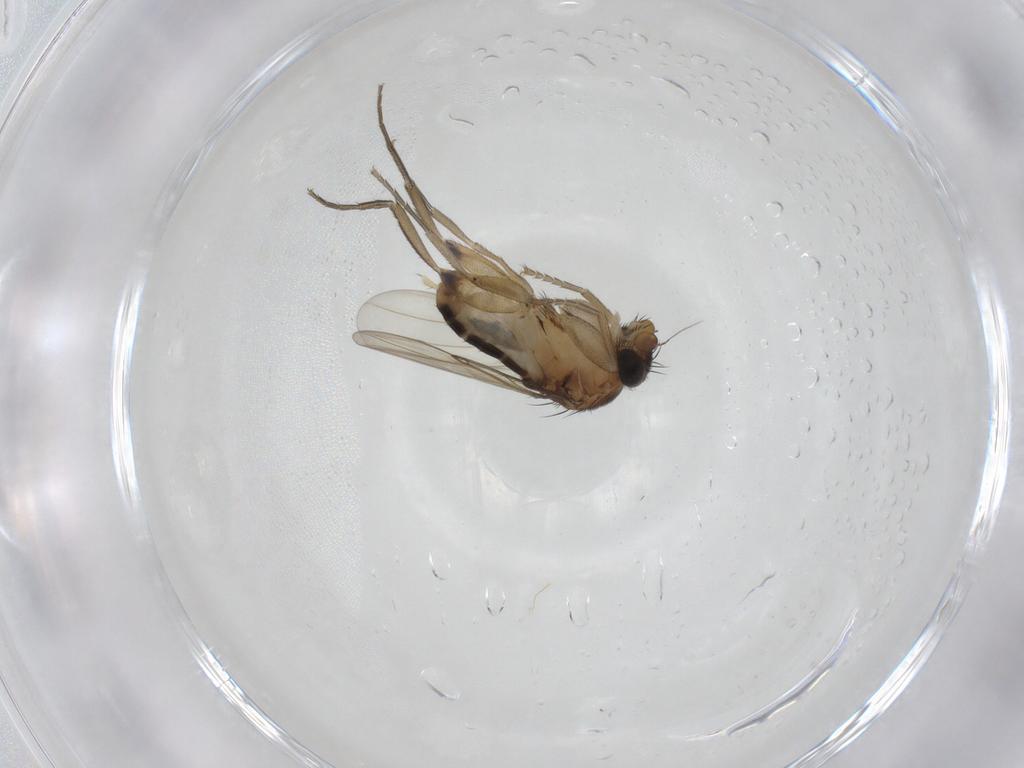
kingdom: Animalia
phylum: Arthropoda
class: Insecta
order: Diptera
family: Phoridae
